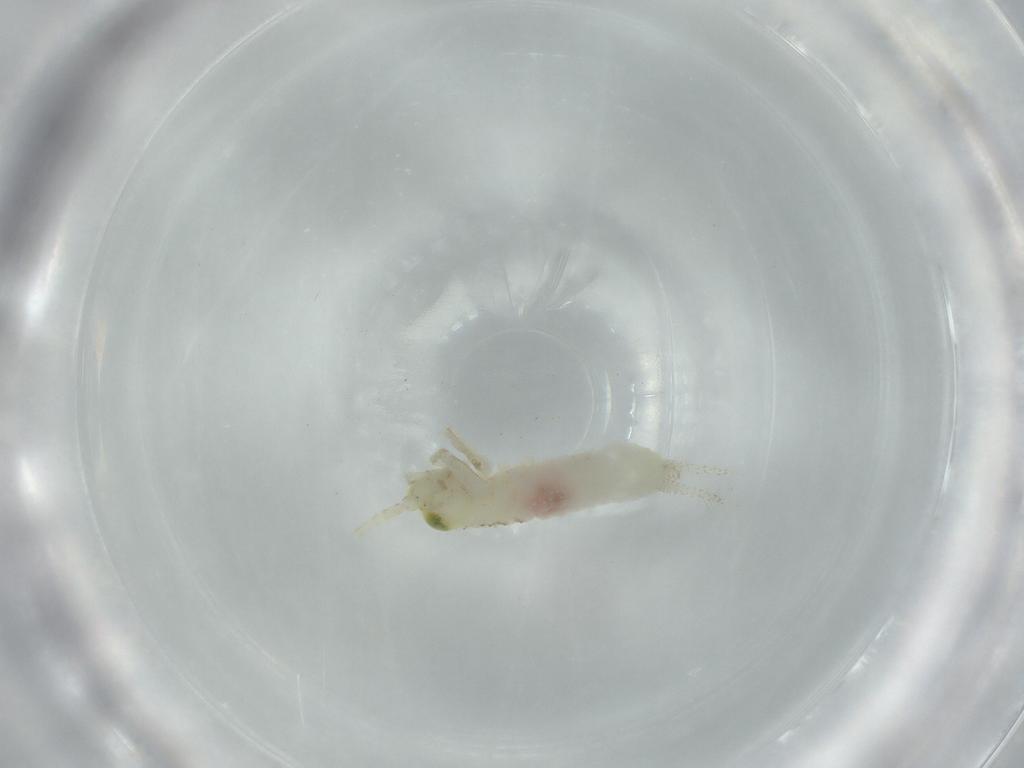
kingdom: Animalia
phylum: Arthropoda
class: Insecta
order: Orthoptera
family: Trigonidiidae
